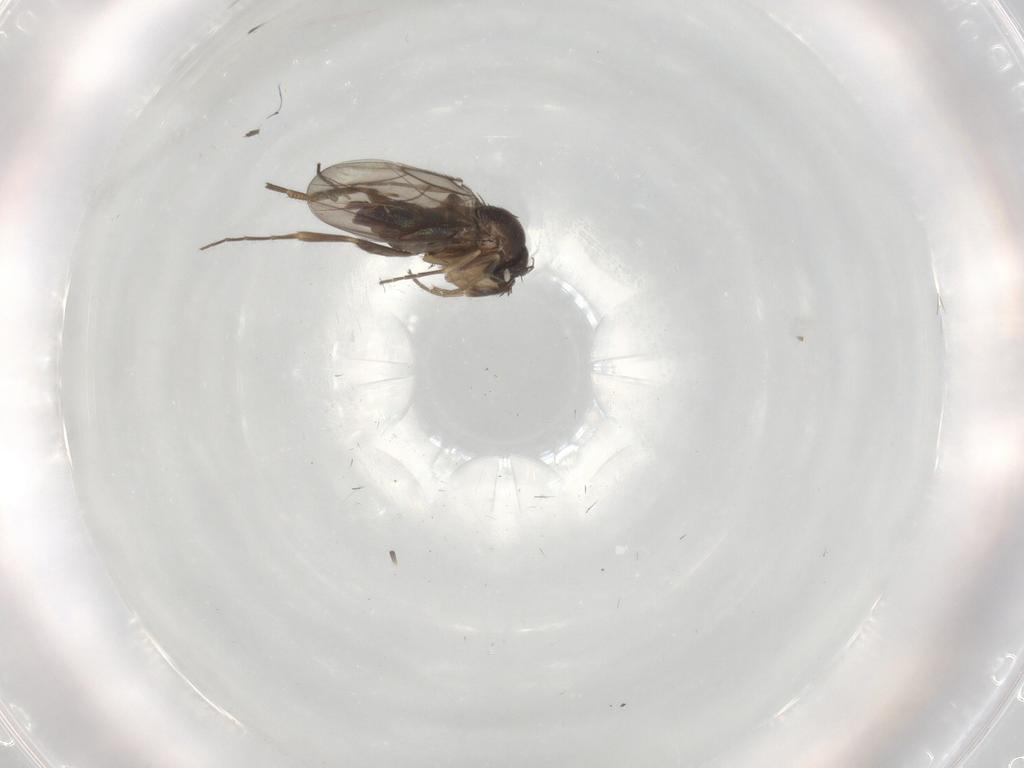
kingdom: Animalia
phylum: Arthropoda
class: Insecta
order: Diptera
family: Phoridae
